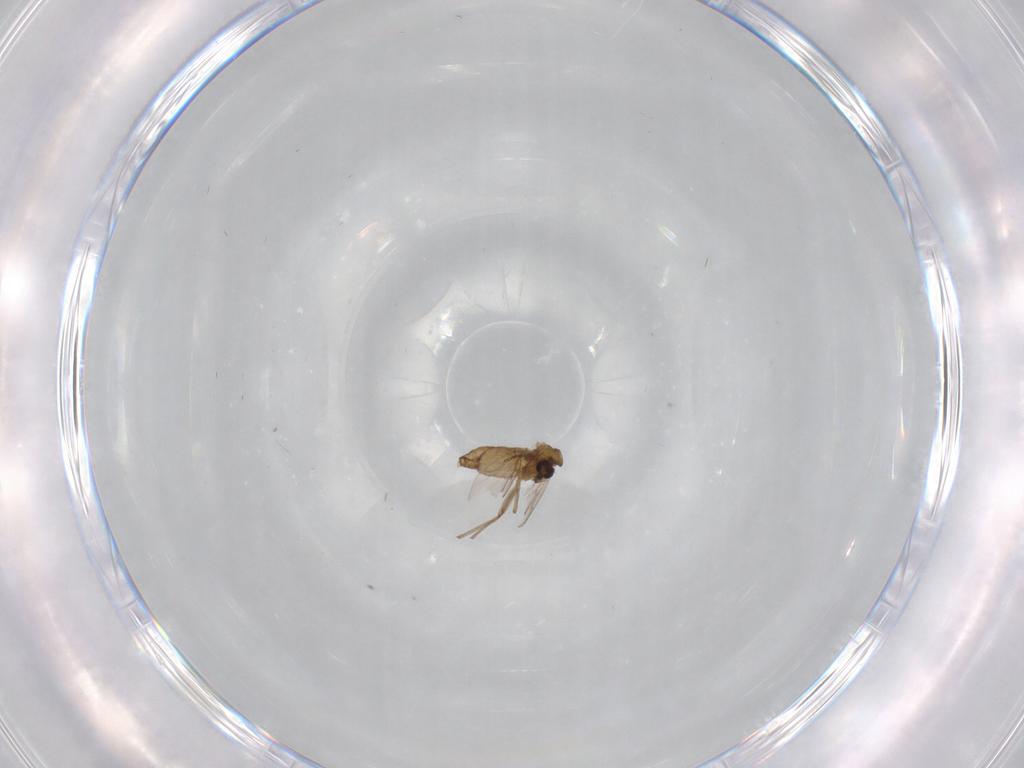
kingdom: Animalia
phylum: Arthropoda
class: Insecta
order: Diptera
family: Chironomidae
